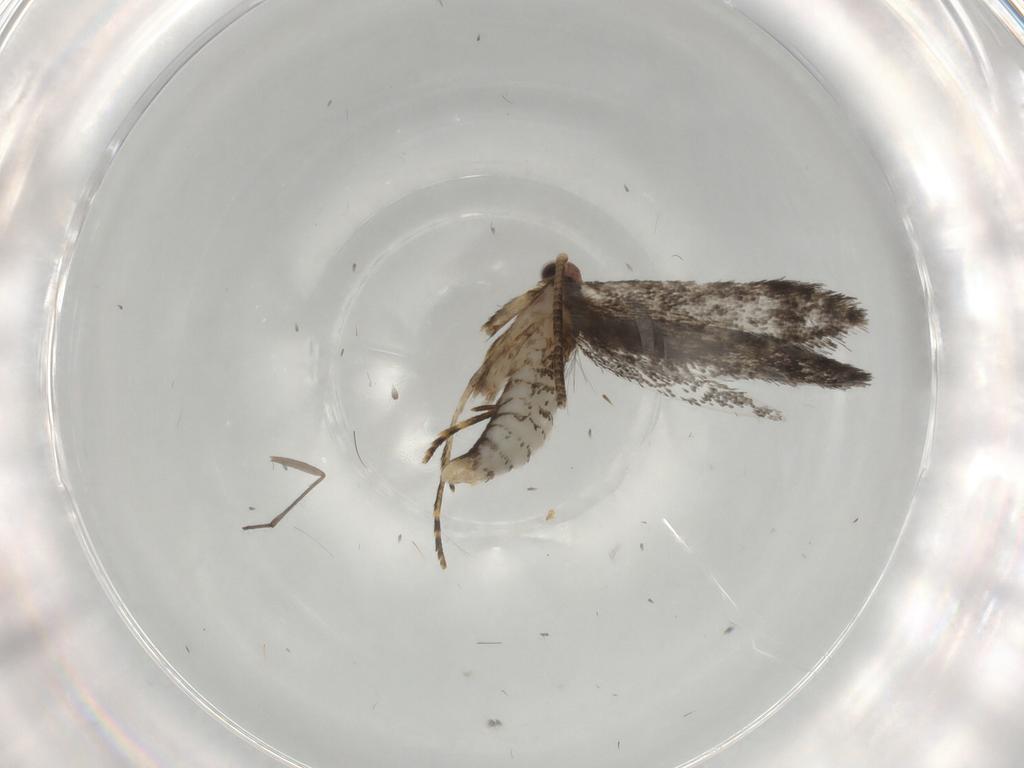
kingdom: Animalia
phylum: Arthropoda
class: Insecta
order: Lepidoptera
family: Tineidae
